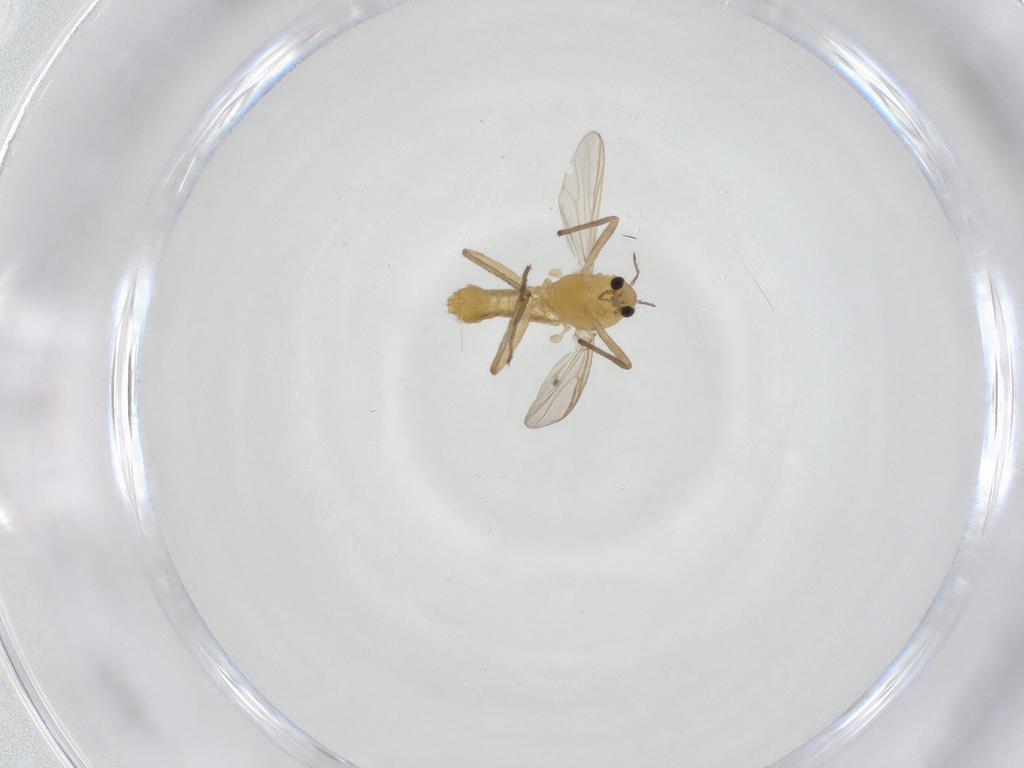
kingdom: Animalia
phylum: Arthropoda
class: Insecta
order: Diptera
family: Chironomidae
